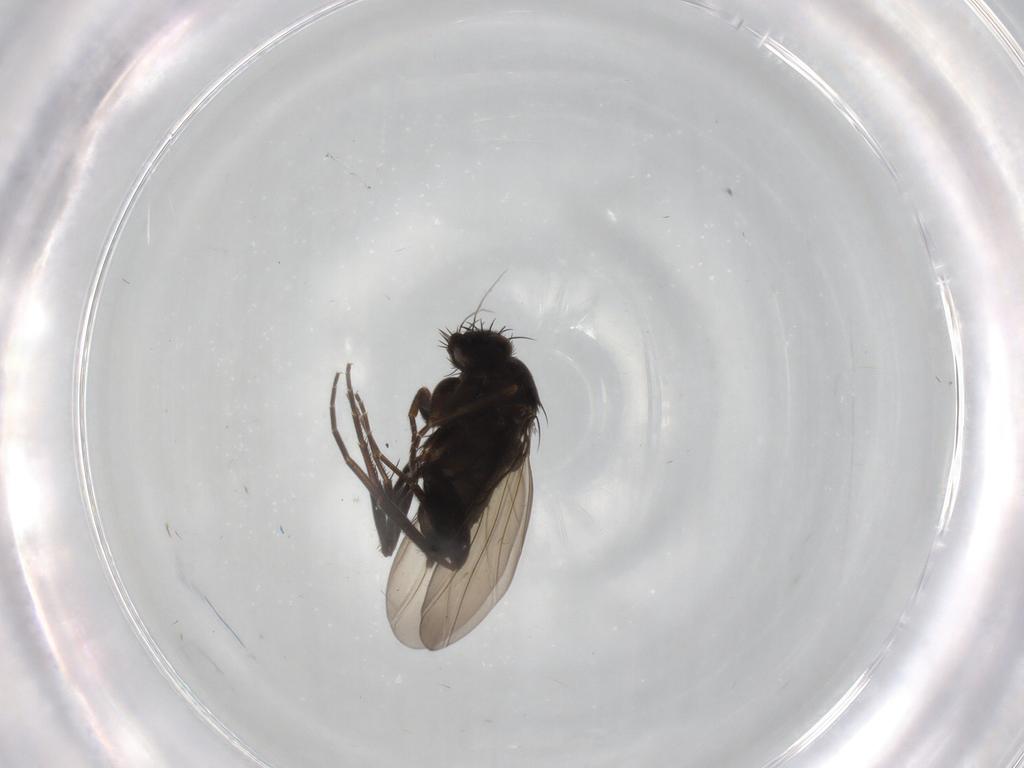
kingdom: Animalia
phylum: Arthropoda
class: Insecta
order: Diptera
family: Phoridae
